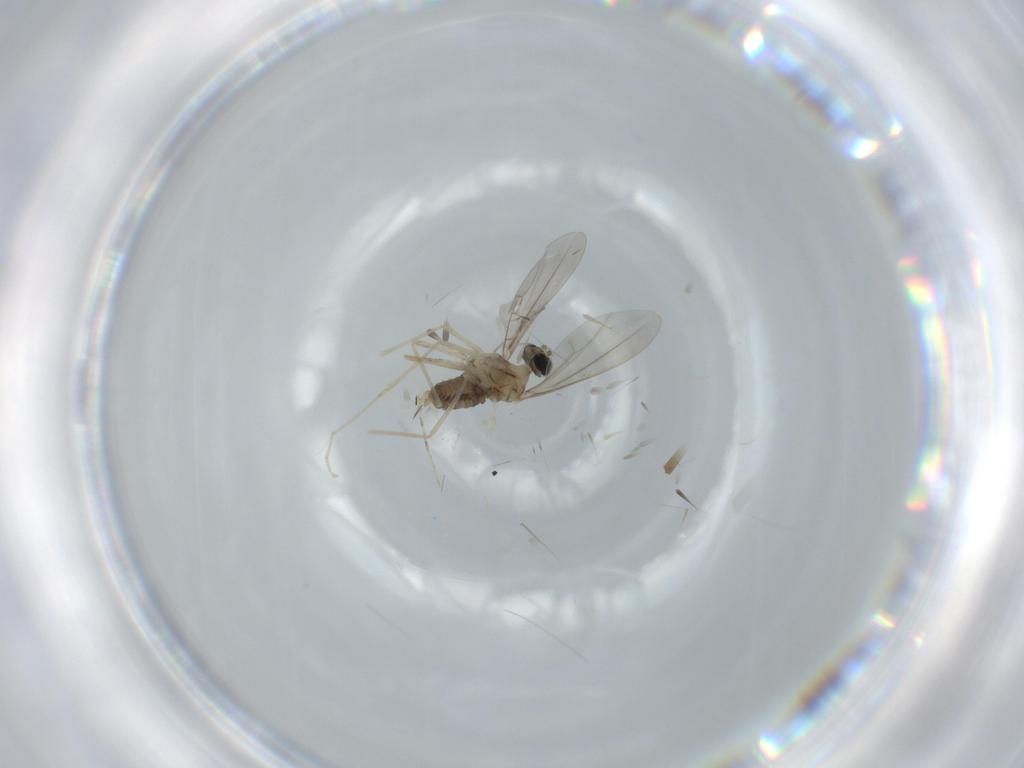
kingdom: Animalia
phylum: Arthropoda
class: Insecta
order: Diptera
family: Cecidomyiidae
